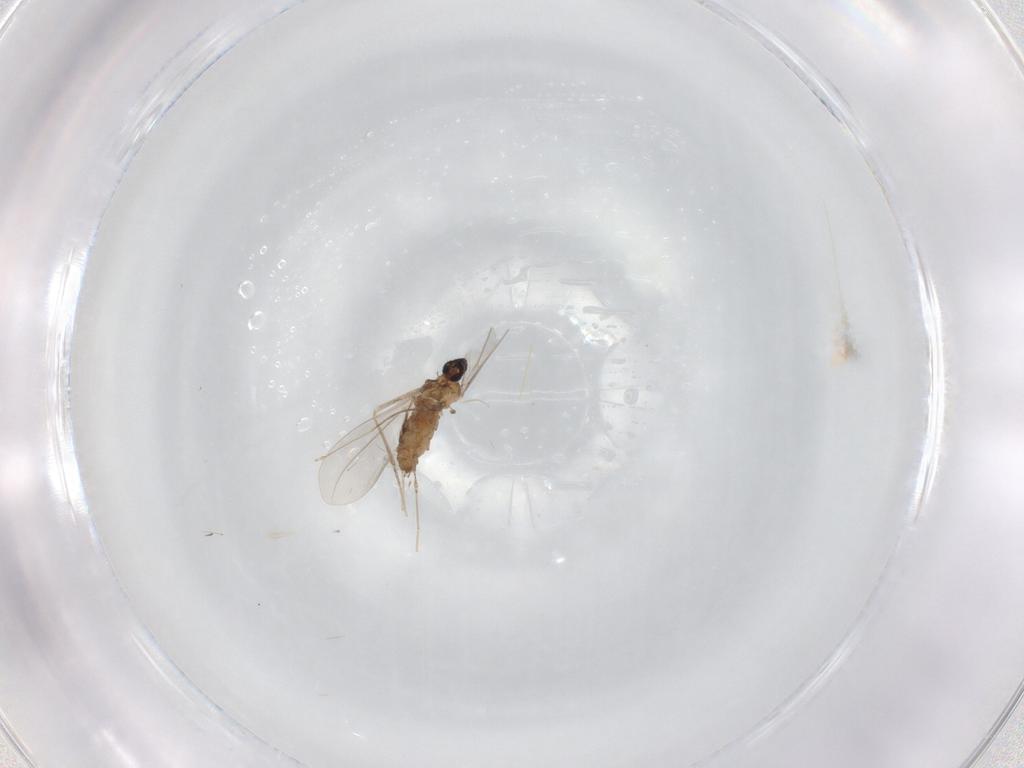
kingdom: Animalia
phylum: Arthropoda
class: Insecta
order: Diptera
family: Cecidomyiidae
